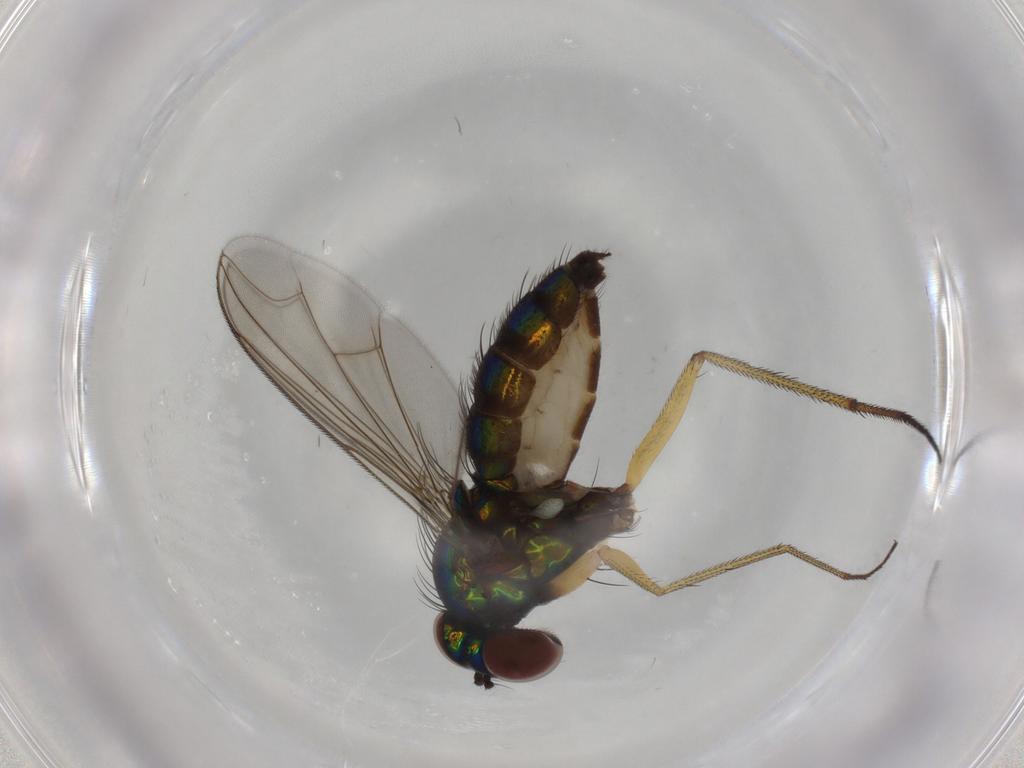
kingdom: Animalia
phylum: Arthropoda
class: Insecta
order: Diptera
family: Dolichopodidae
